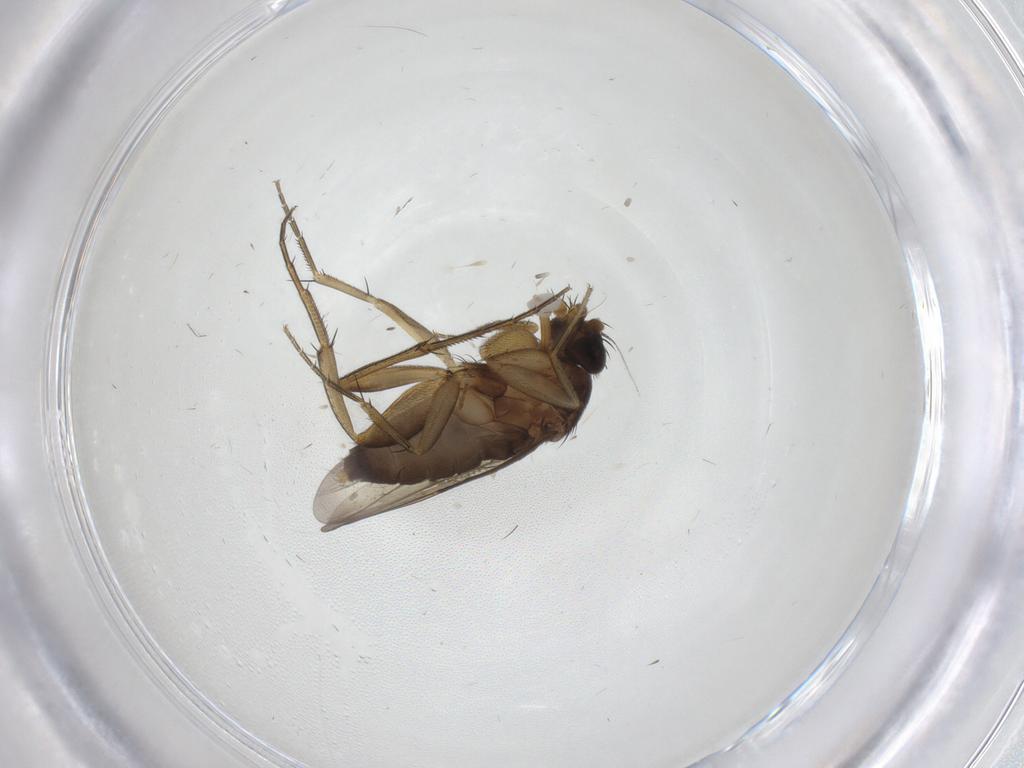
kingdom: Animalia
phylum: Arthropoda
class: Insecta
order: Diptera
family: Phoridae
